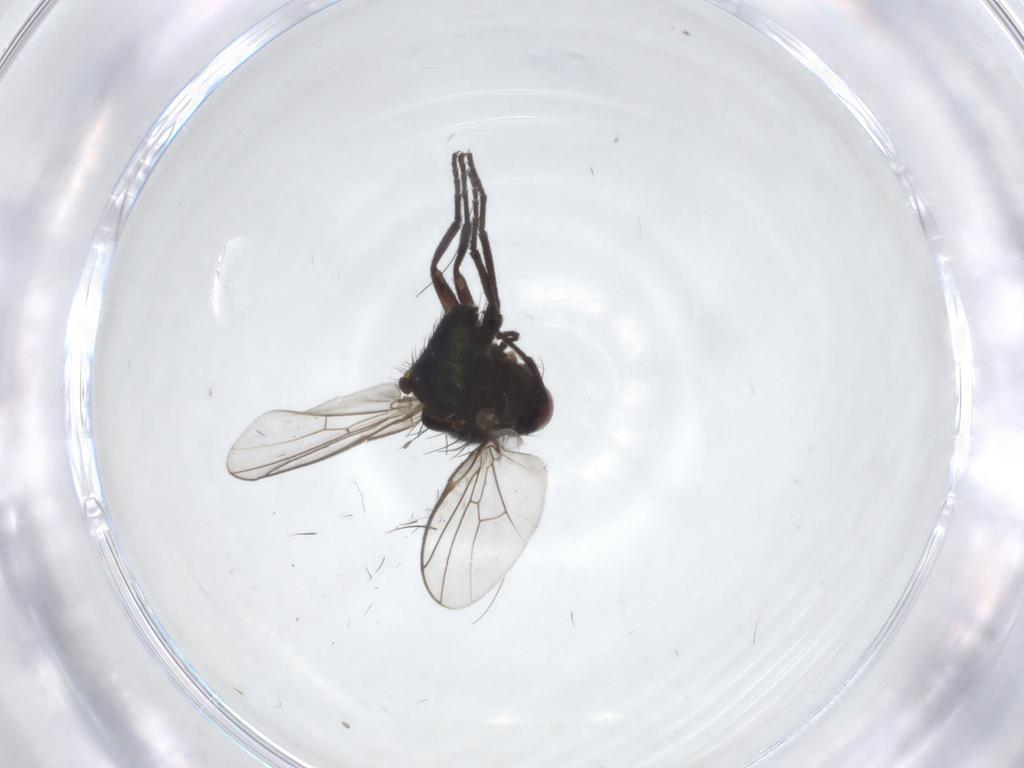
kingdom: Animalia
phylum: Arthropoda
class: Insecta
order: Diptera
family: Agromyzidae
